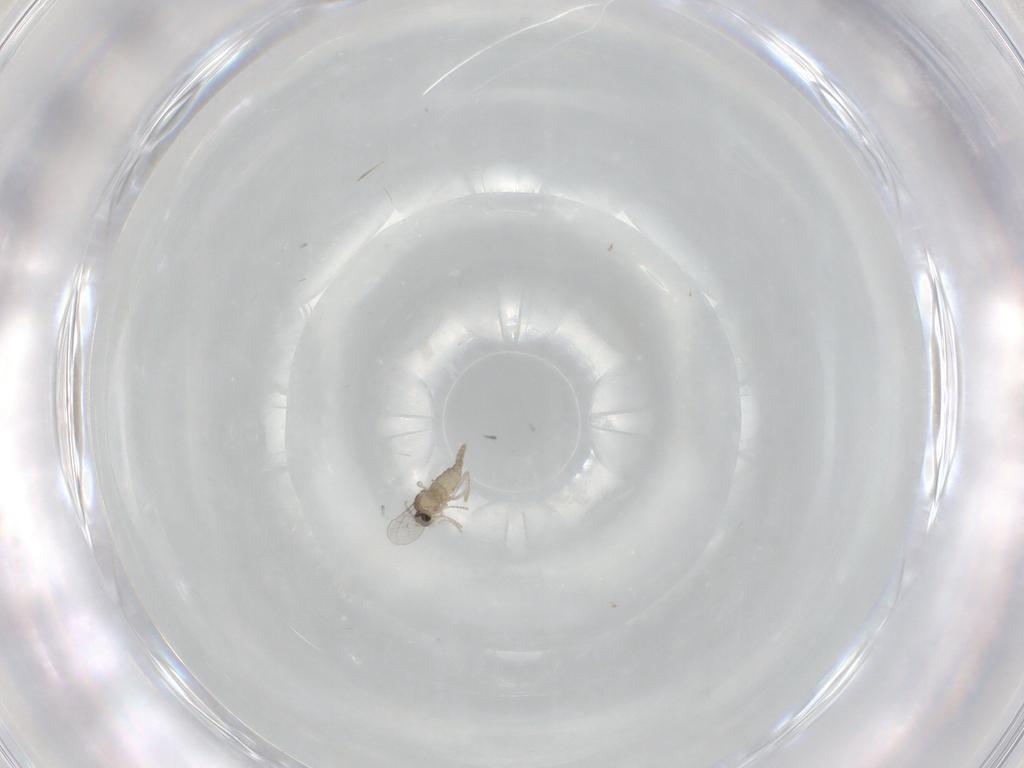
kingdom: Animalia
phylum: Arthropoda
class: Insecta
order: Diptera
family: Cecidomyiidae
